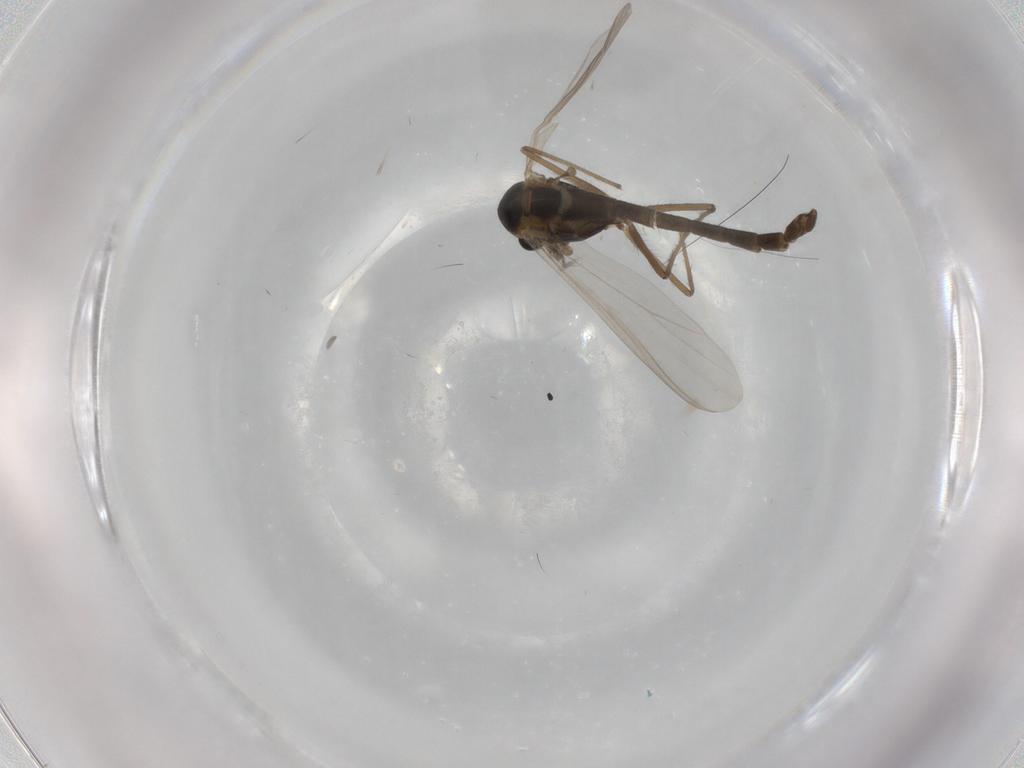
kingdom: Animalia
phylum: Arthropoda
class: Insecta
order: Diptera
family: Chironomidae
